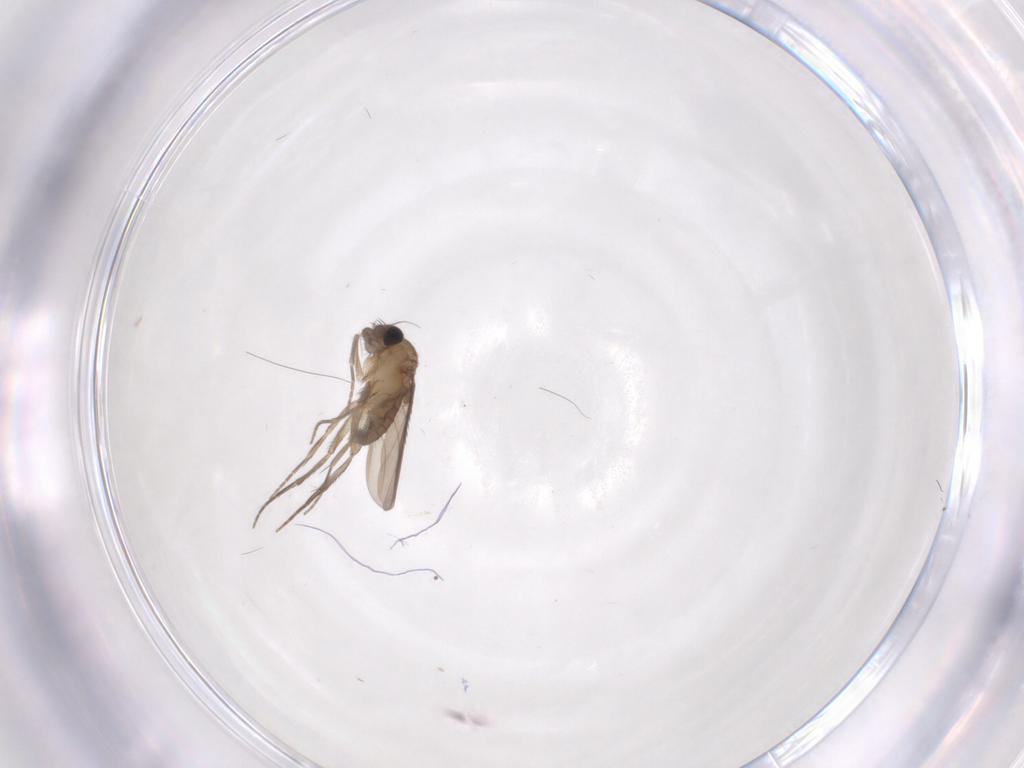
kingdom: Animalia
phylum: Arthropoda
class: Insecta
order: Diptera
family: Phoridae
